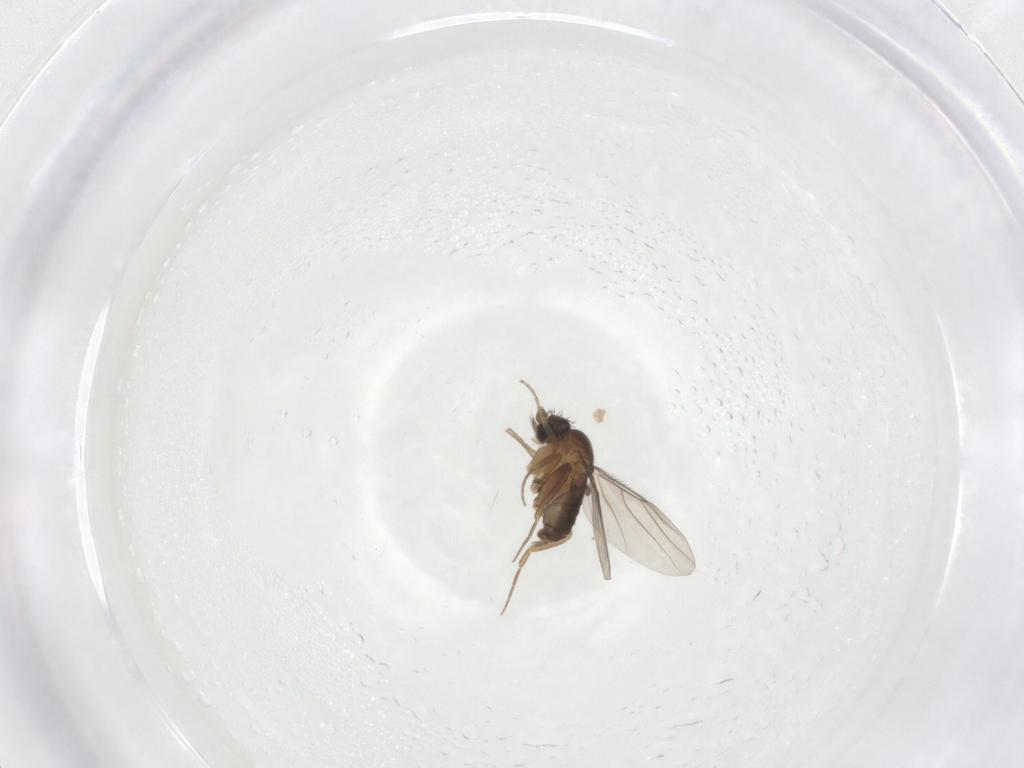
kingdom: Animalia
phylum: Arthropoda
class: Insecta
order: Diptera
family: Phoridae
